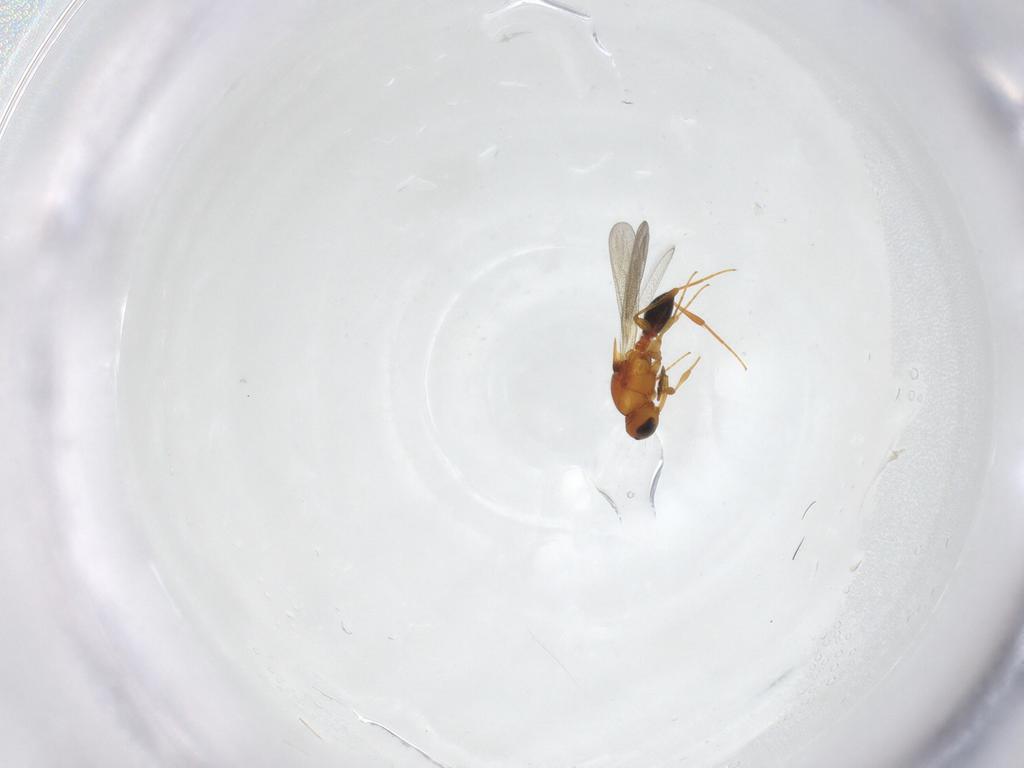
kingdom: Animalia
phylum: Arthropoda
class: Insecta
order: Hymenoptera
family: Platygastridae
